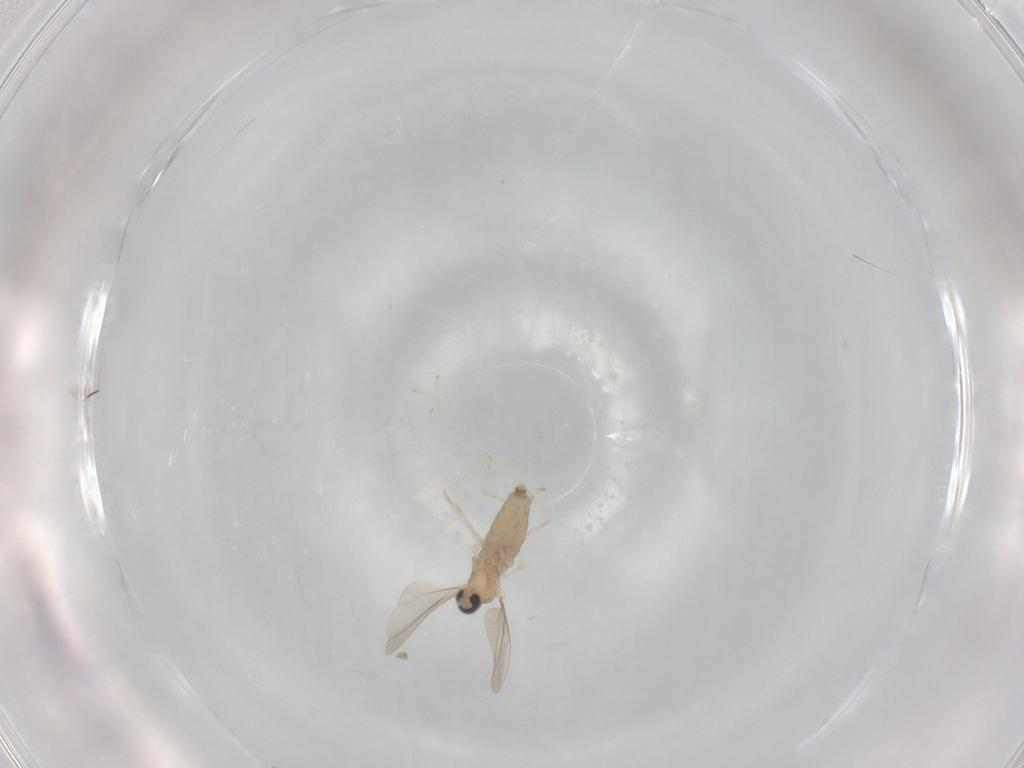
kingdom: Animalia
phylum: Arthropoda
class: Insecta
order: Diptera
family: Cecidomyiidae
